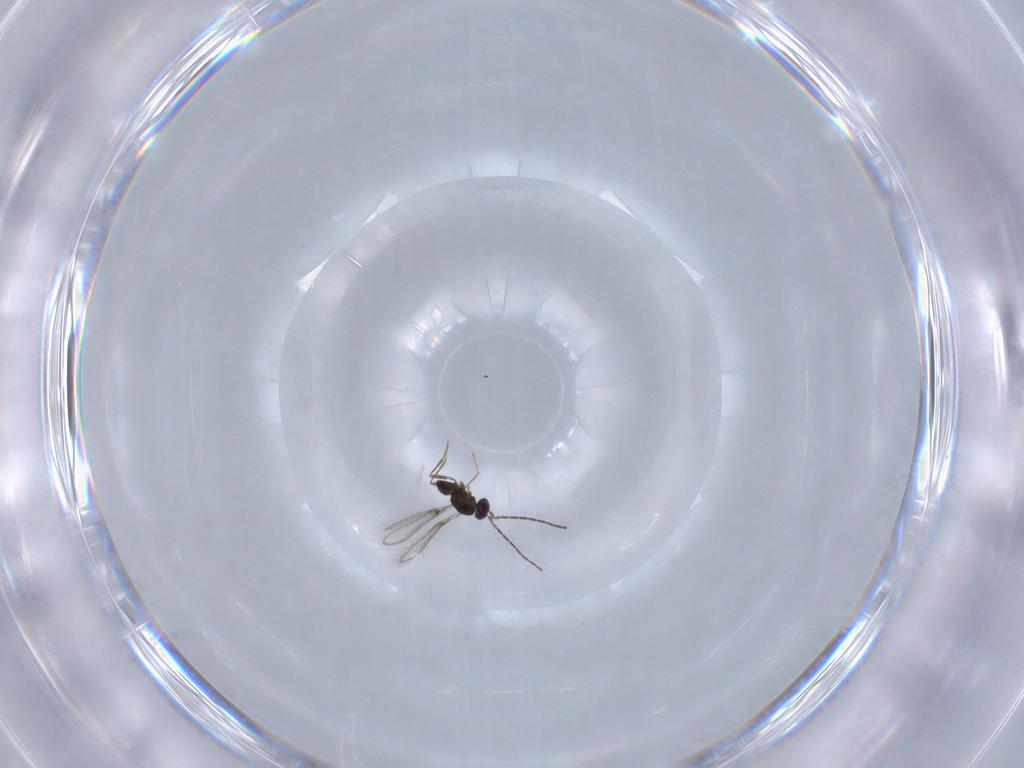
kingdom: Animalia
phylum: Arthropoda
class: Insecta
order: Hymenoptera
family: Mymaridae
